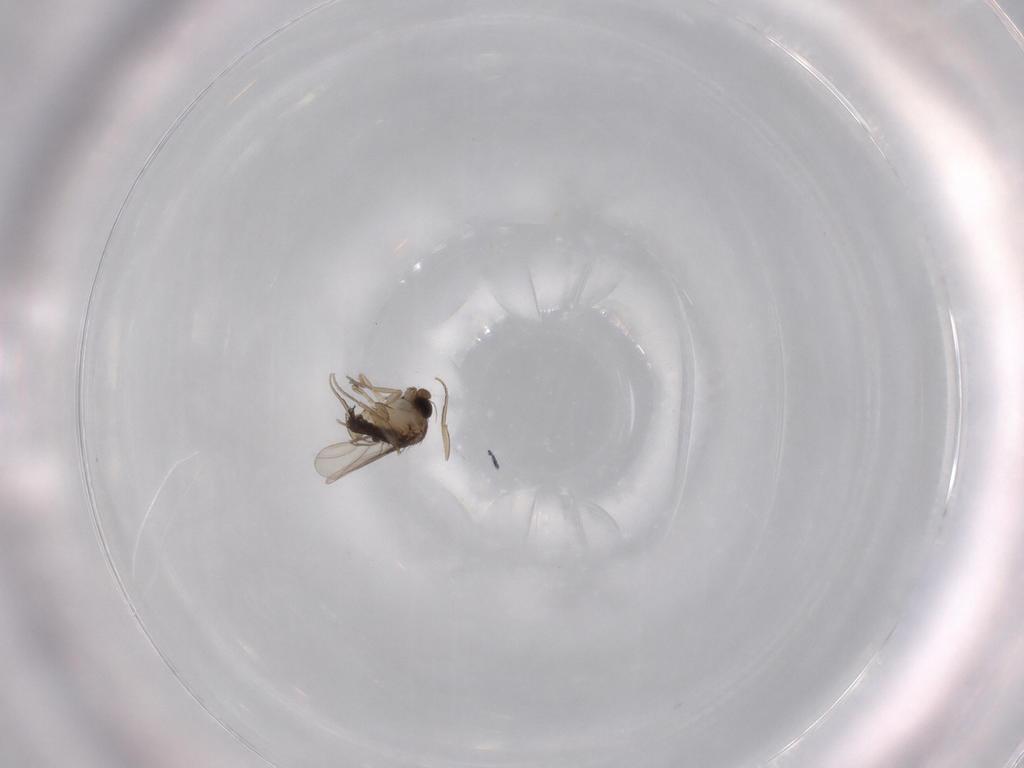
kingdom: Animalia
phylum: Arthropoda
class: Insecta
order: Diptera
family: Phoridae
